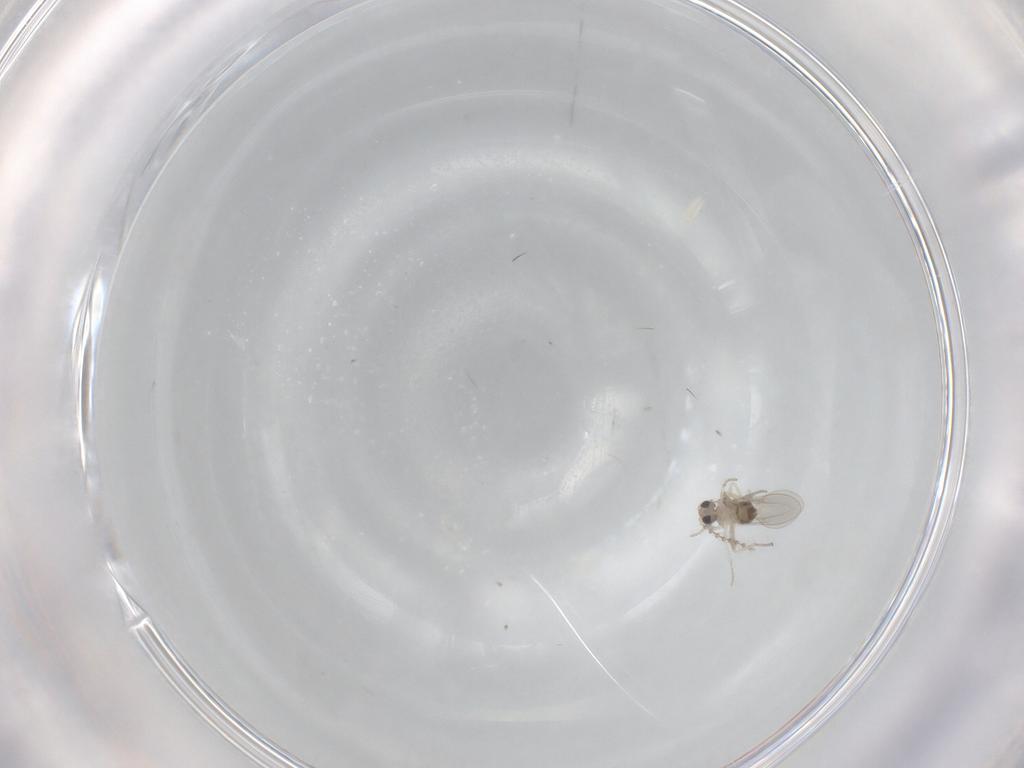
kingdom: Animalia
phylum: Arthropoda
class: Insecta
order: Diptera
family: Cecidomyiidae
